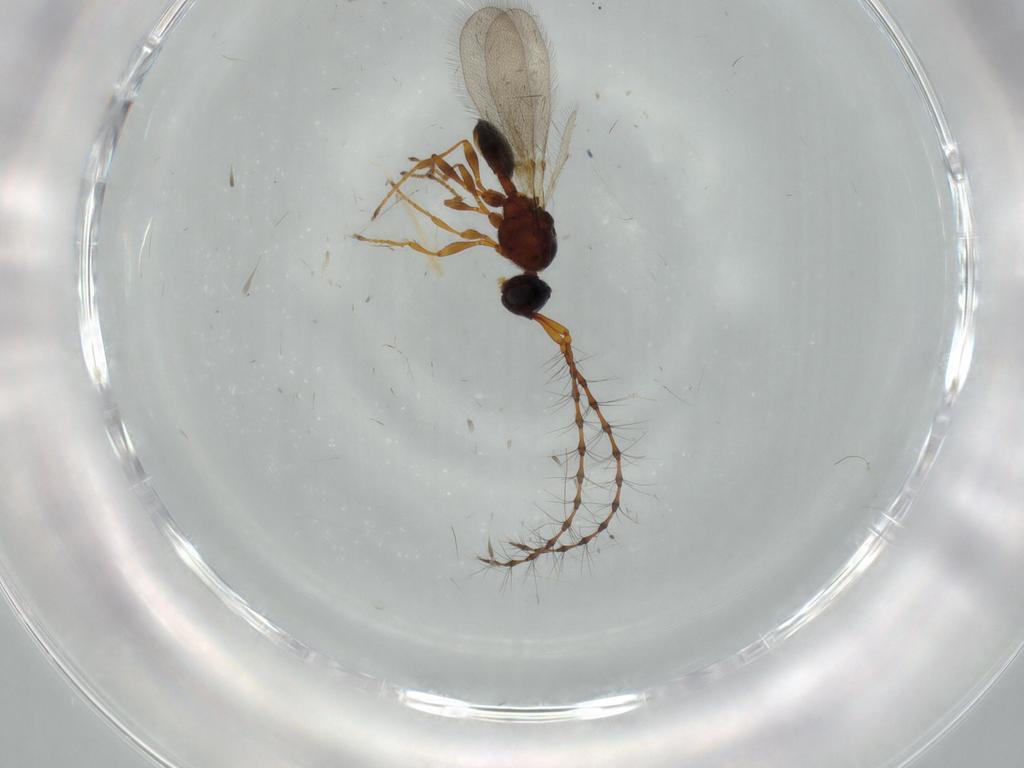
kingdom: Animalia
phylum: Arthropoda
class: Insecta
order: Hymenoptera
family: Diapriidae
